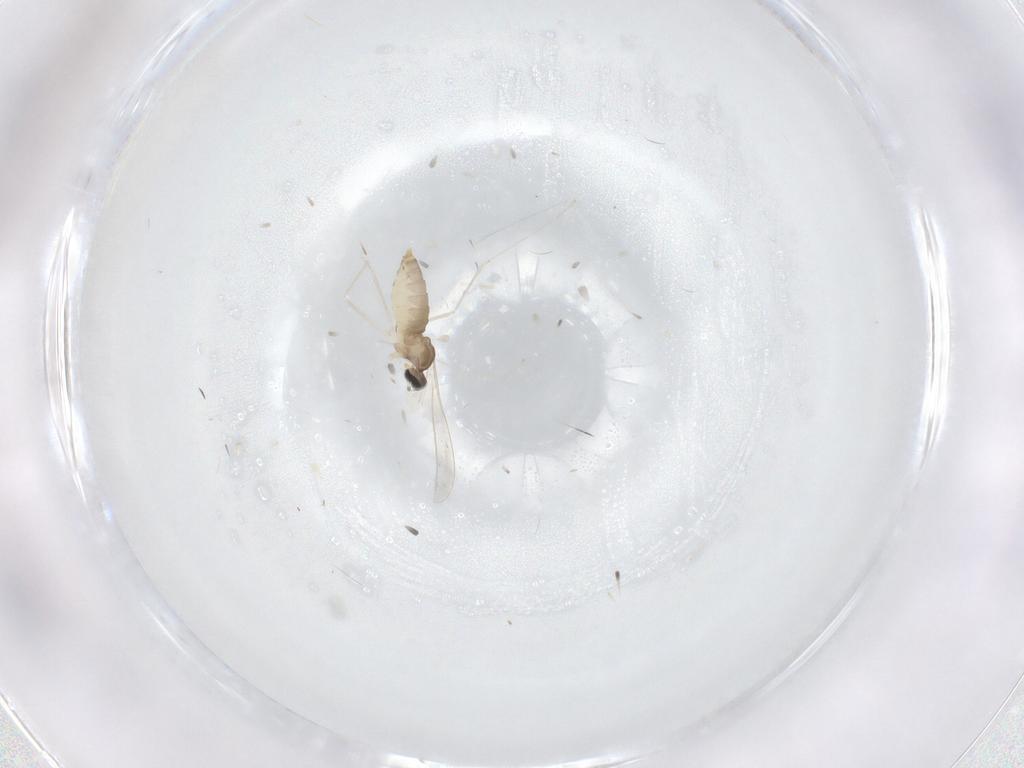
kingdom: Animalia
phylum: Arthropoda
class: Insecta
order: Diptera
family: Cecidomyiidae
